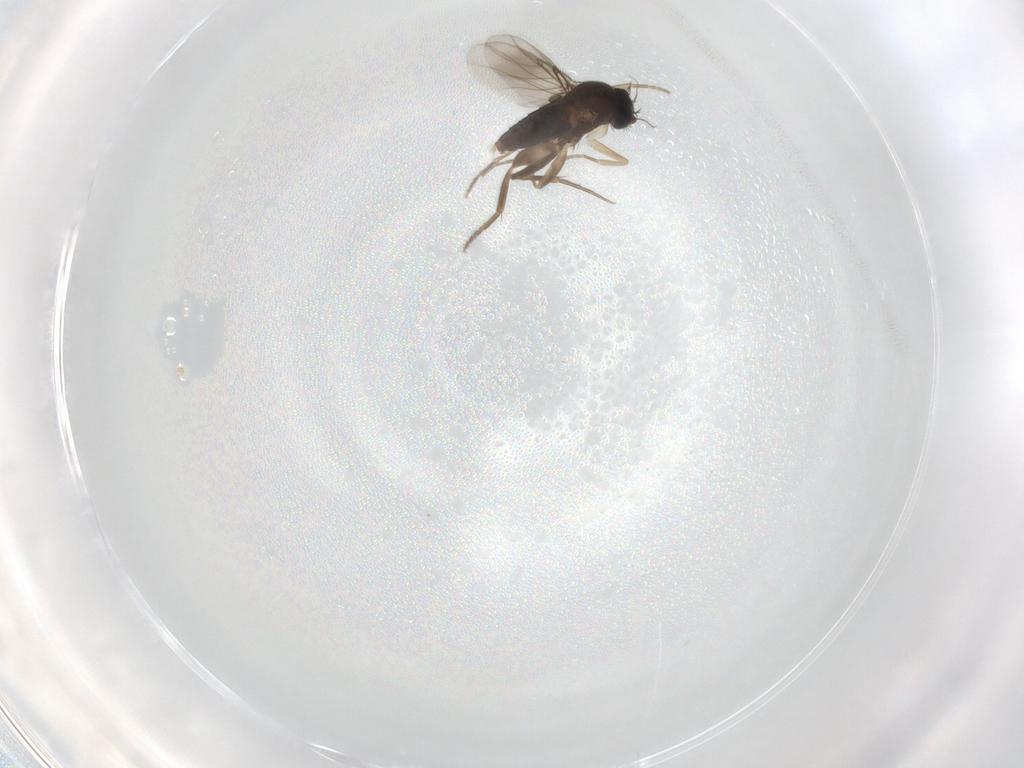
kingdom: Animalia
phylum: Arthropoda
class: Insecta
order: Diptera
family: Phoridae
